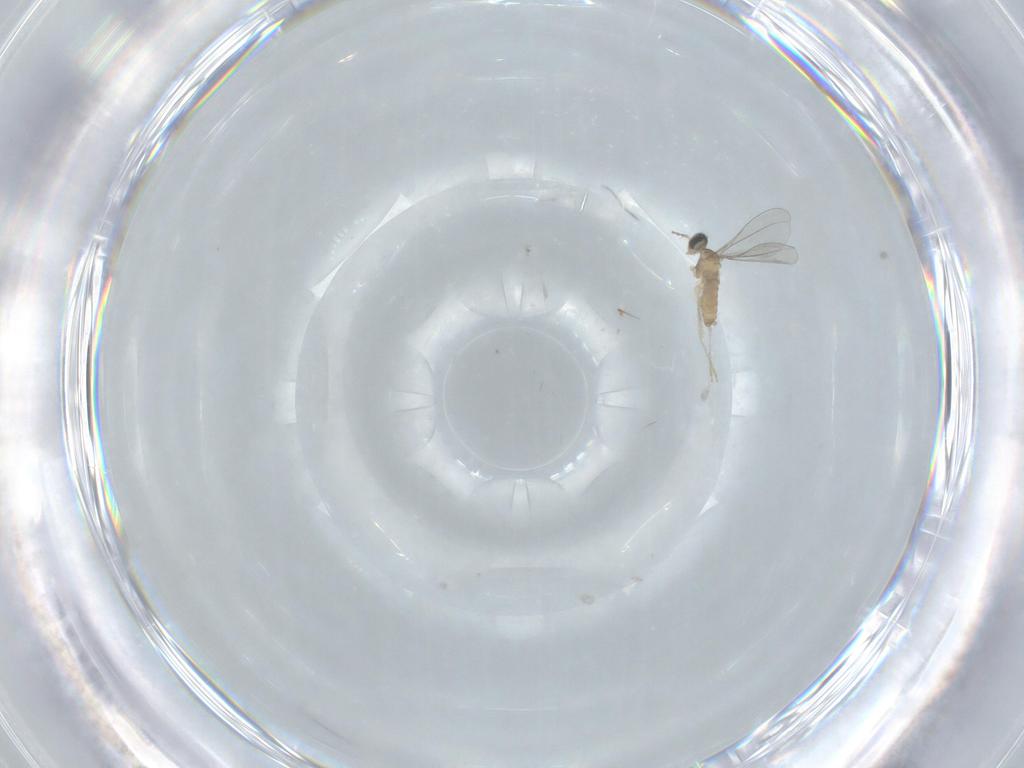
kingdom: Animalia
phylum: Arthropoda
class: Insecta
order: Diptera
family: Cecidomyiidae
